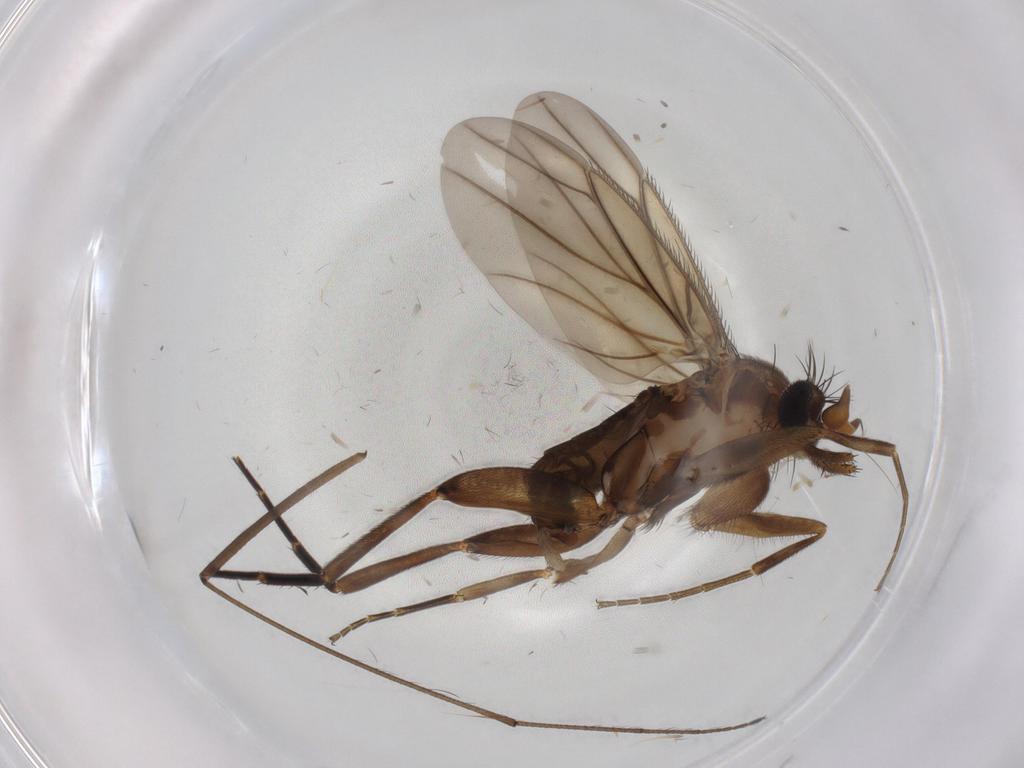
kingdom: Animalia
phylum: Arthropoda
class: Insecta
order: Diptera
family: Phoridae
